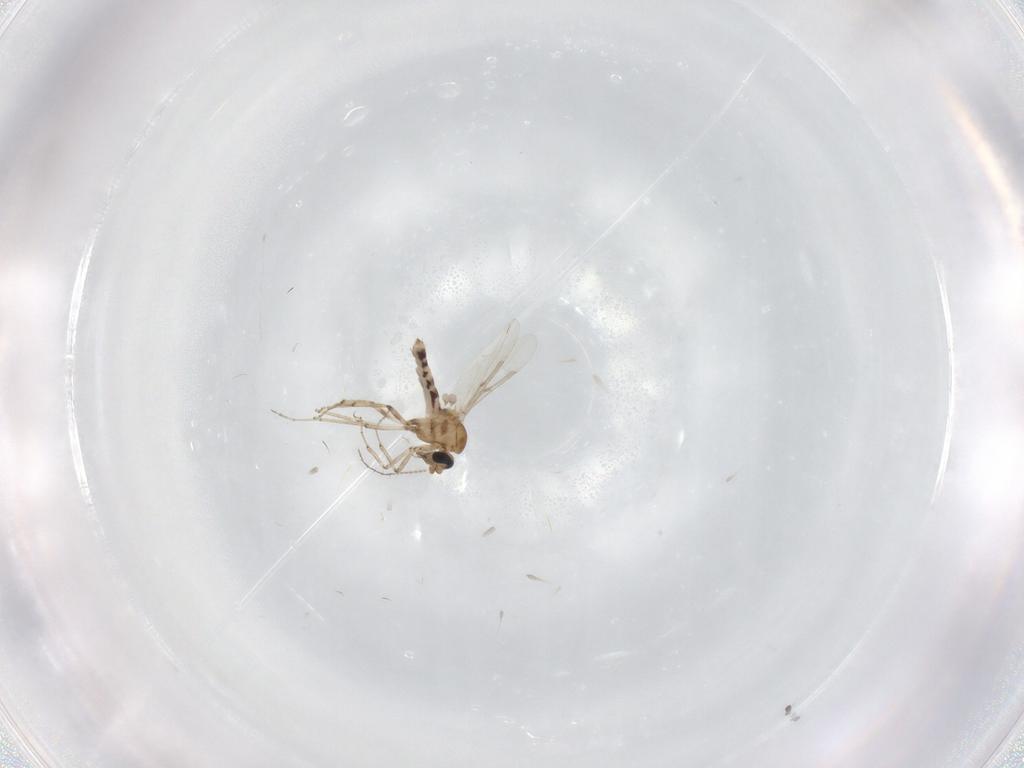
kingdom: Animalia
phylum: Arthropoda
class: Insecta
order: Diptera
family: Ceratopogonidae
